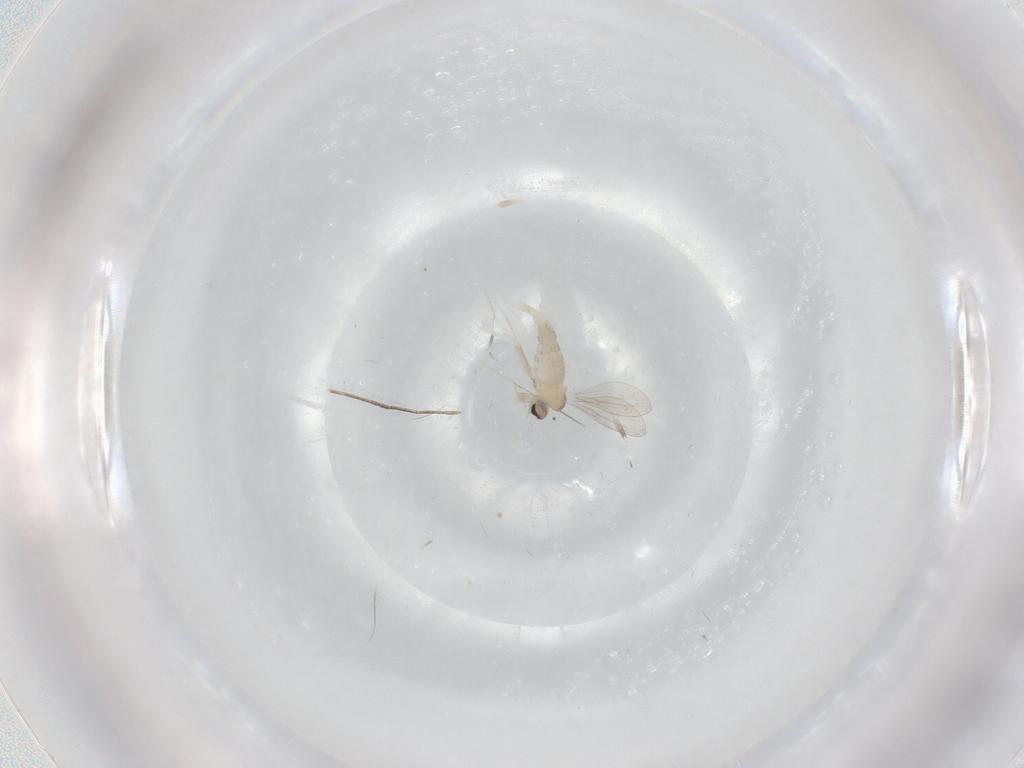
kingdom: Animalia
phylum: Arthropoda
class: Insecta
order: Diptera
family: Cecidomyiidae
